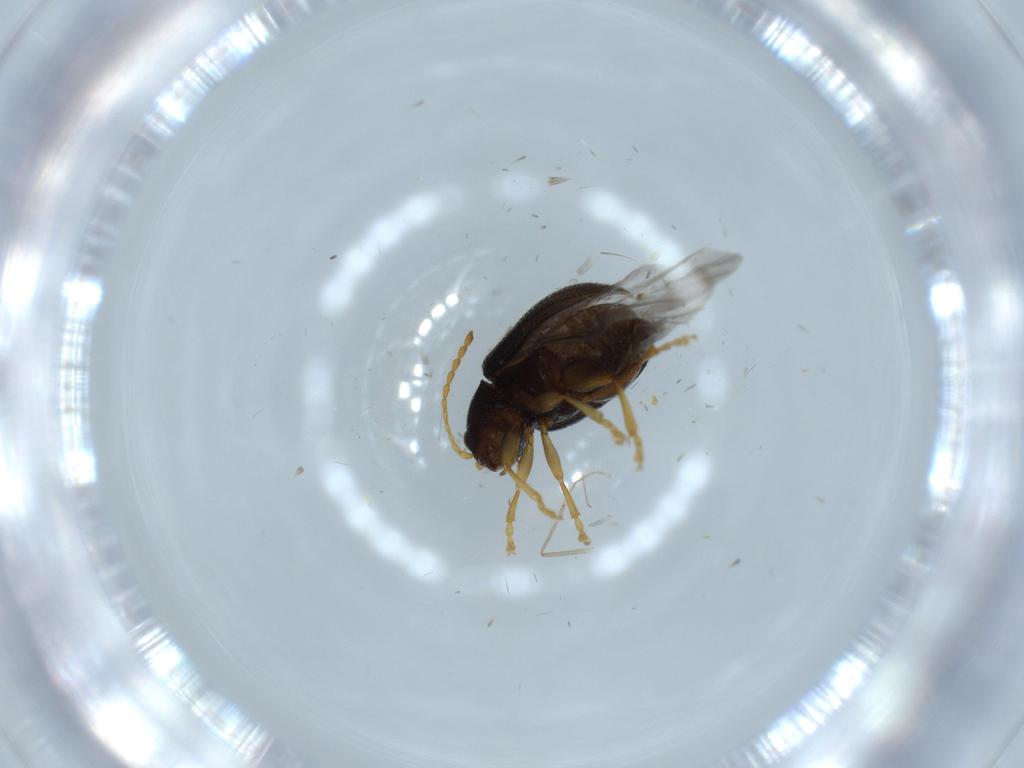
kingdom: Animalia
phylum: Arthropoda
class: Insecta
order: Coleoptera
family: Chrysomelidae
